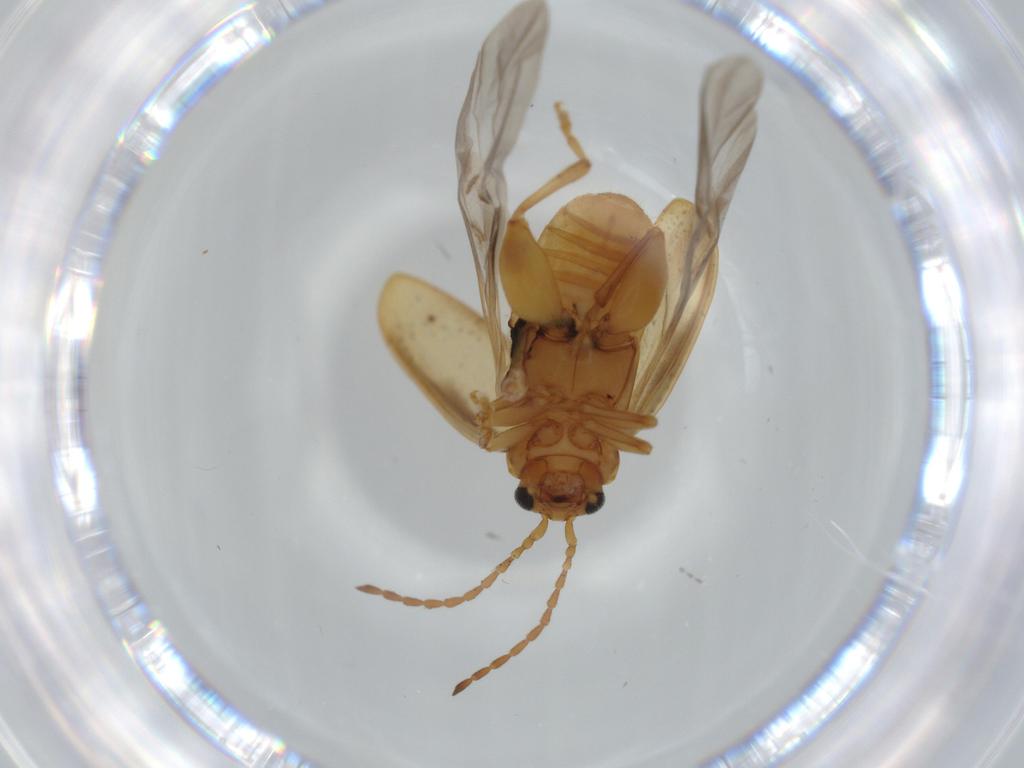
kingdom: Animalia
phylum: Arthropoda
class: Insecta
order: Coleoptera
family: Chrysomelidae
